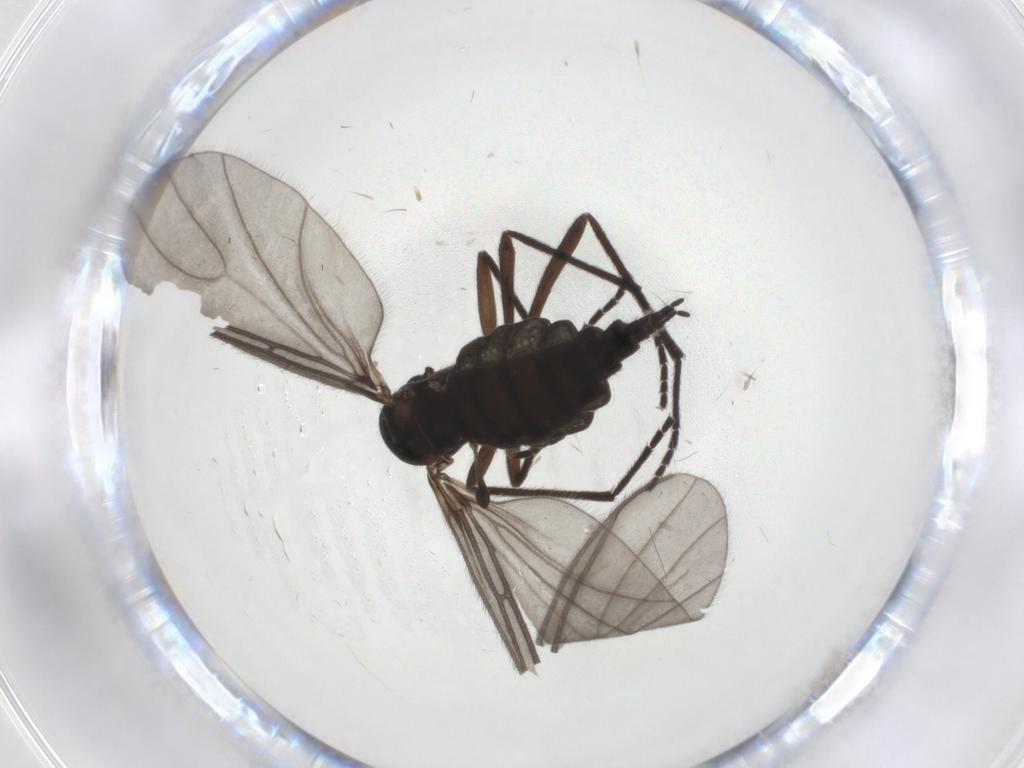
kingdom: Animalia
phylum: Arthropoda
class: Insecta
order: Diptera
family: Sciaridae
